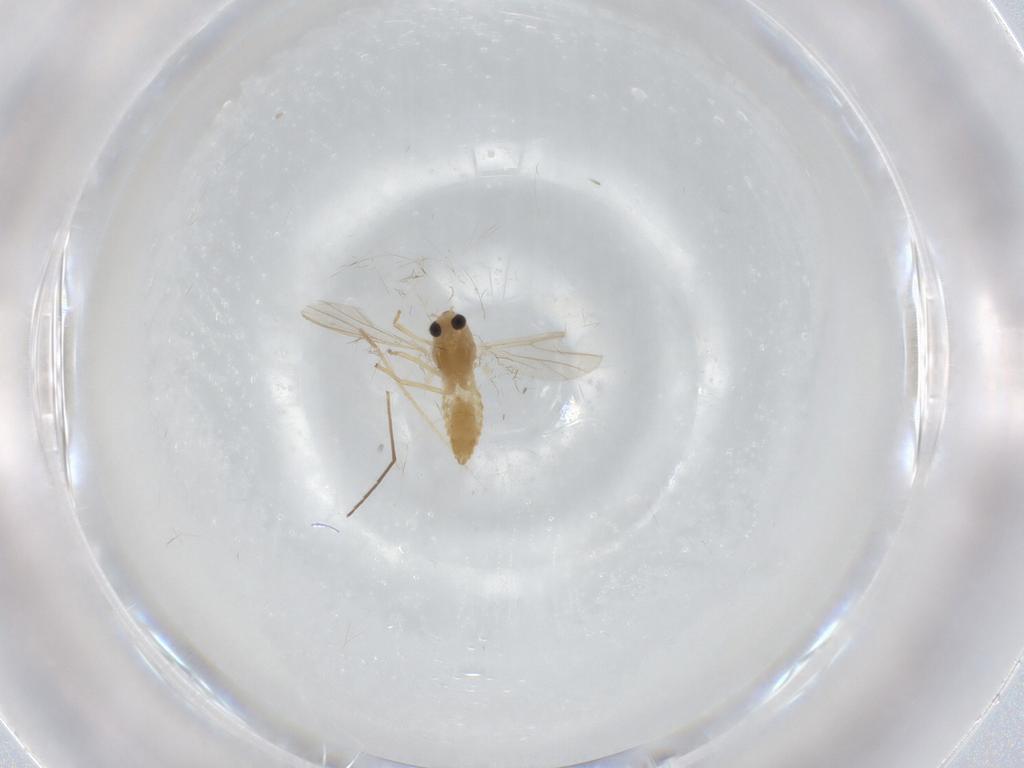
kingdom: Animalia
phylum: Arthropoda
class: Insecta
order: Diptera
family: Chironomidae
